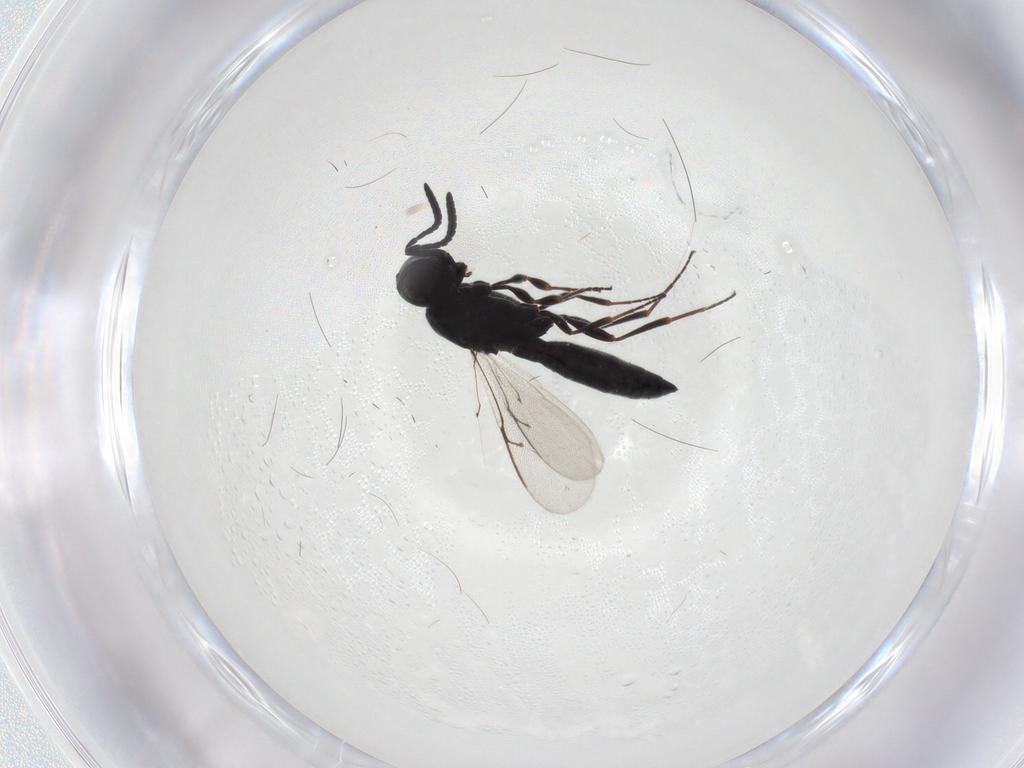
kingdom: Animalia
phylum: Arthropoda
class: Insecta
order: Hymenoptera
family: Scelionidae
